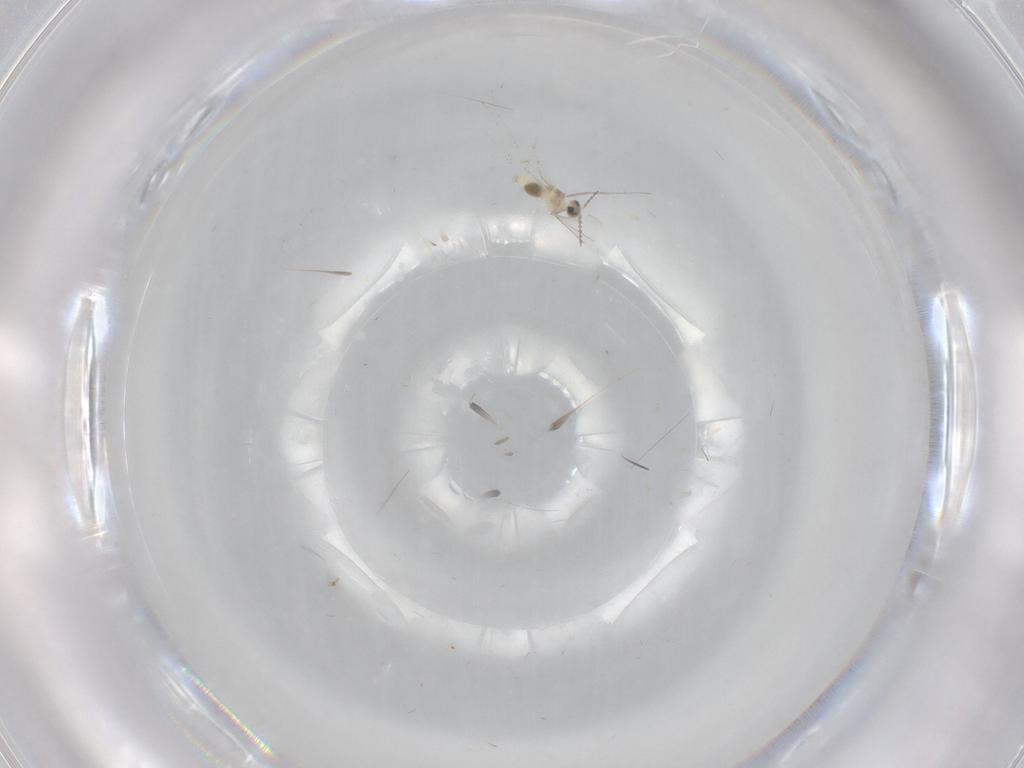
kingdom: Animalia
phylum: Arthropoda
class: Insecta
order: Diptera
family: Cecidomyiidae
